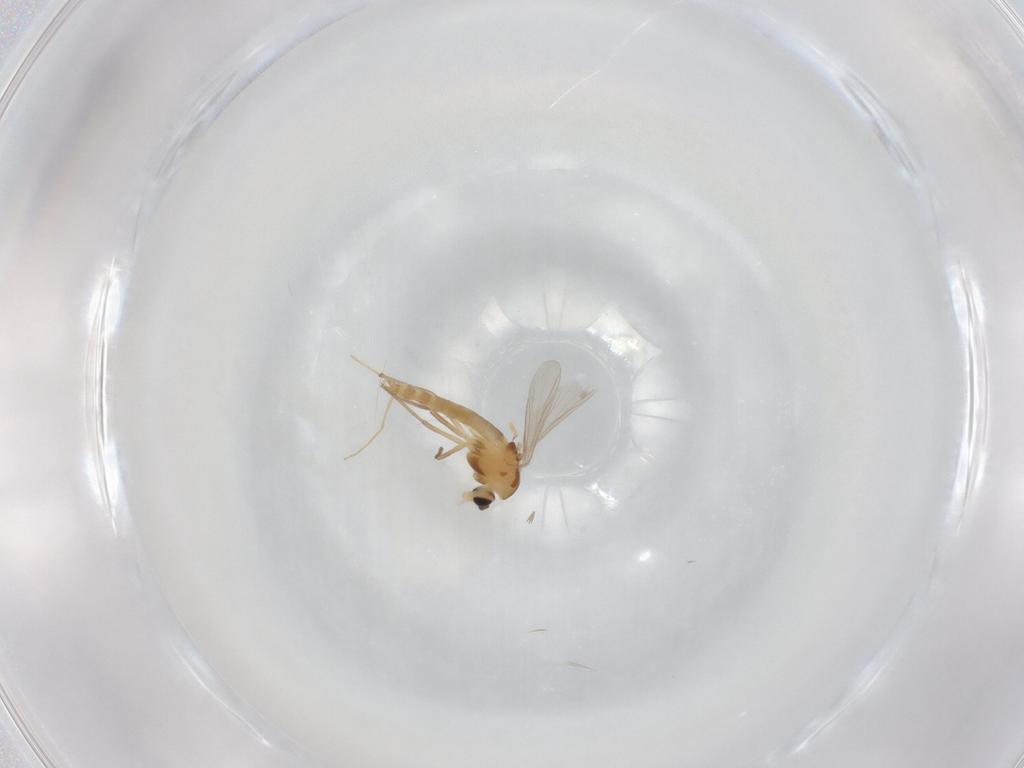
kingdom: Animalia
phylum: Arthropoda
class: Insecta
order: Diptera
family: Chironomidae
